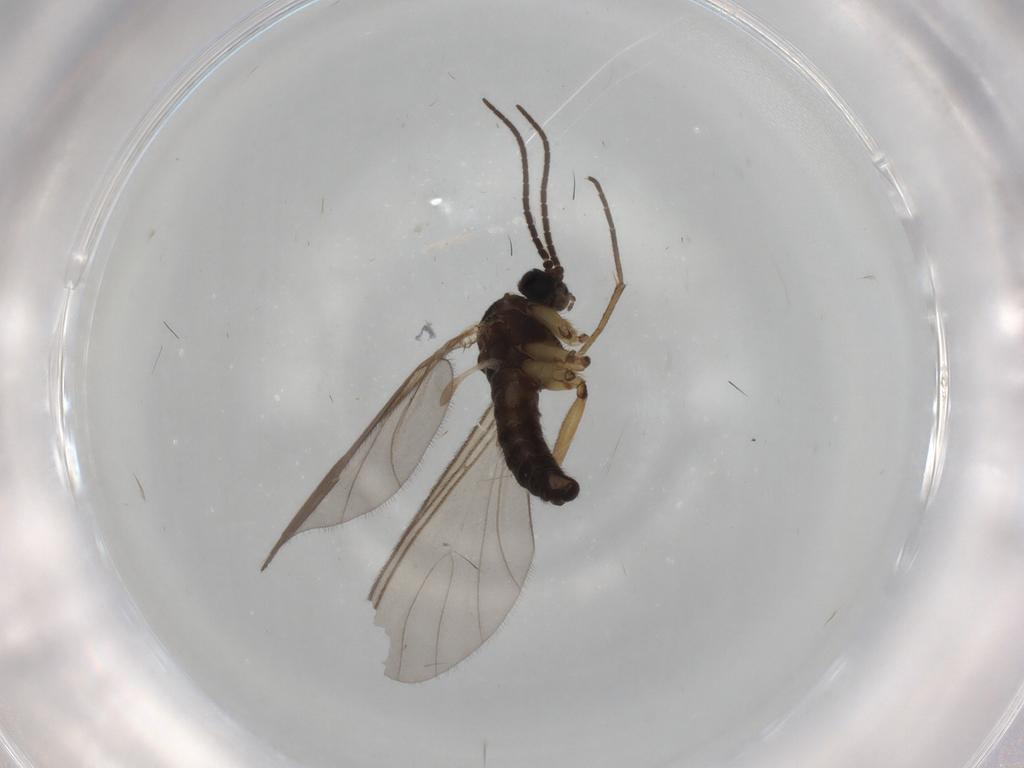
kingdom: Animalia
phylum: Arthropoda
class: Insecta
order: Diptera
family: Sciaridae
